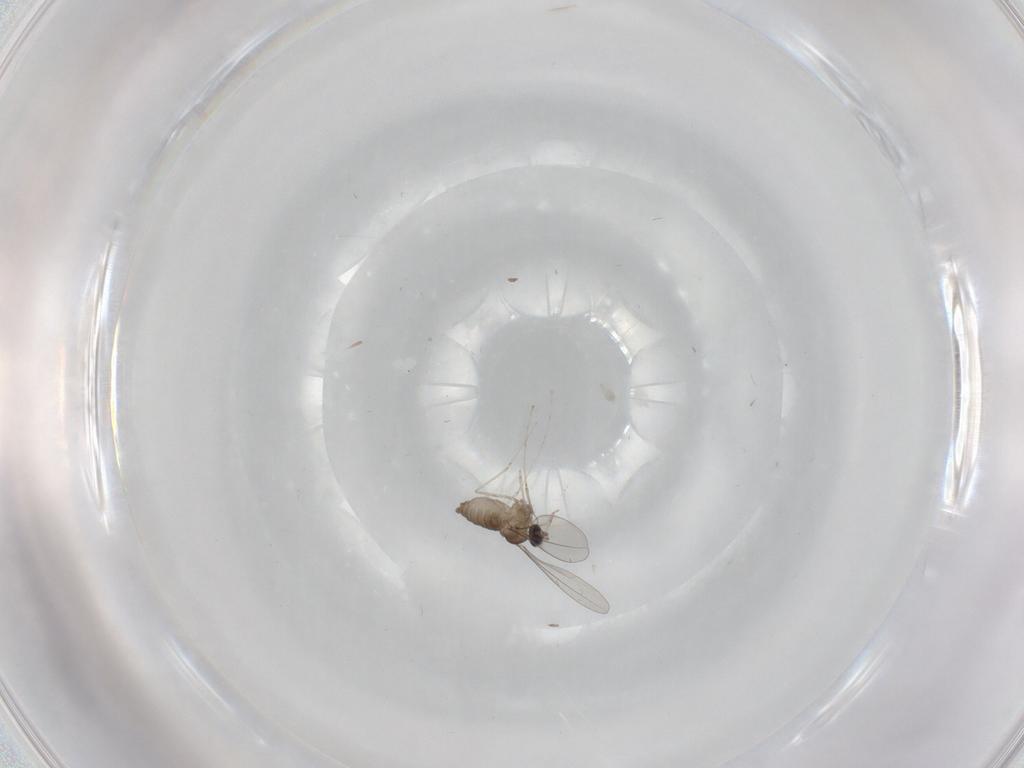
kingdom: Animalia
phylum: Arthropoda
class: Insecta
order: Diptera
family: Cecidomyiidae
